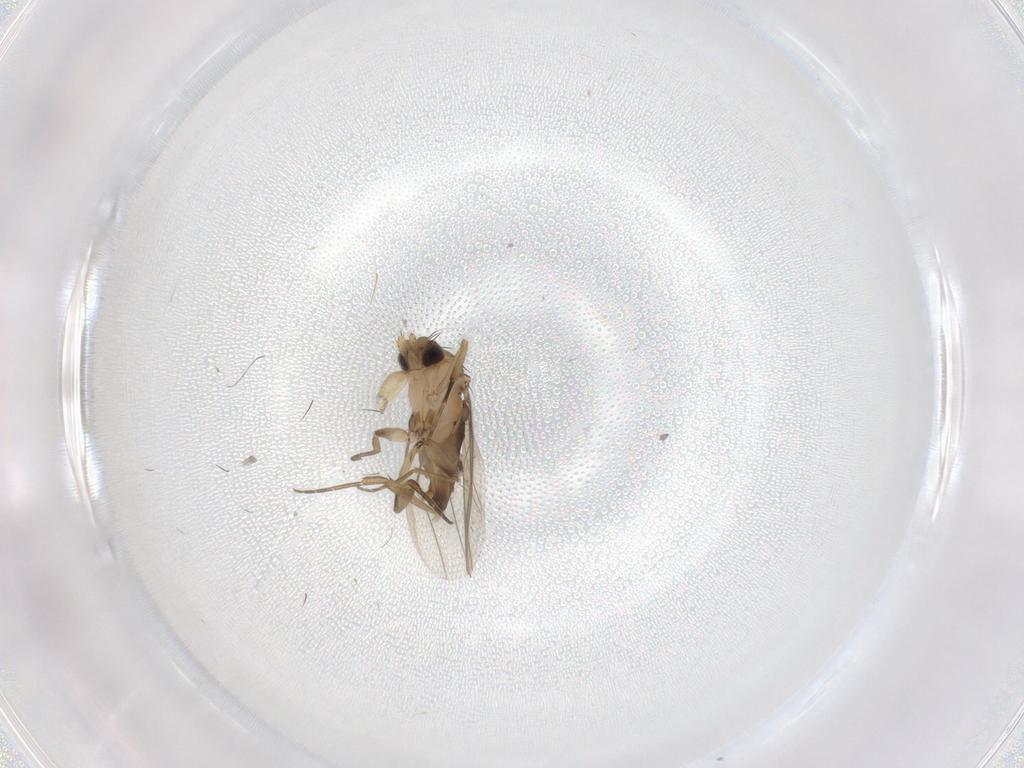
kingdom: Animalia
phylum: Arthropoda
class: Insecta
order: Diptera
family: Phoridae
